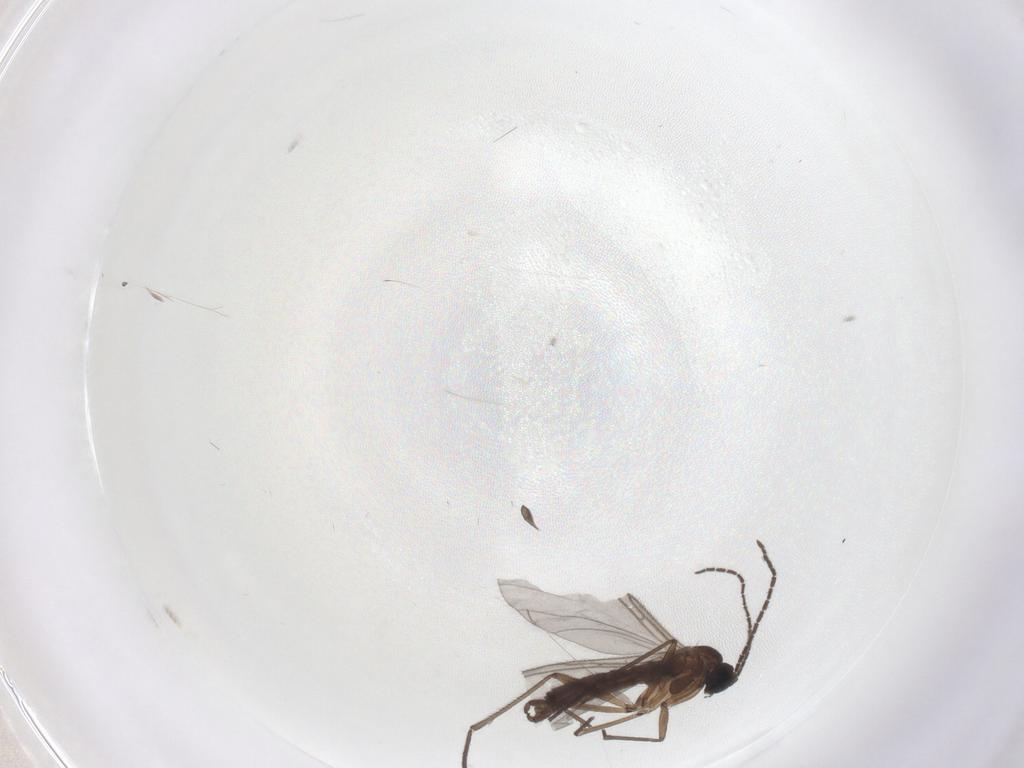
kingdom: Animalia
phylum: Arthropoda
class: Insecta
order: Diptera
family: Sciaridae
